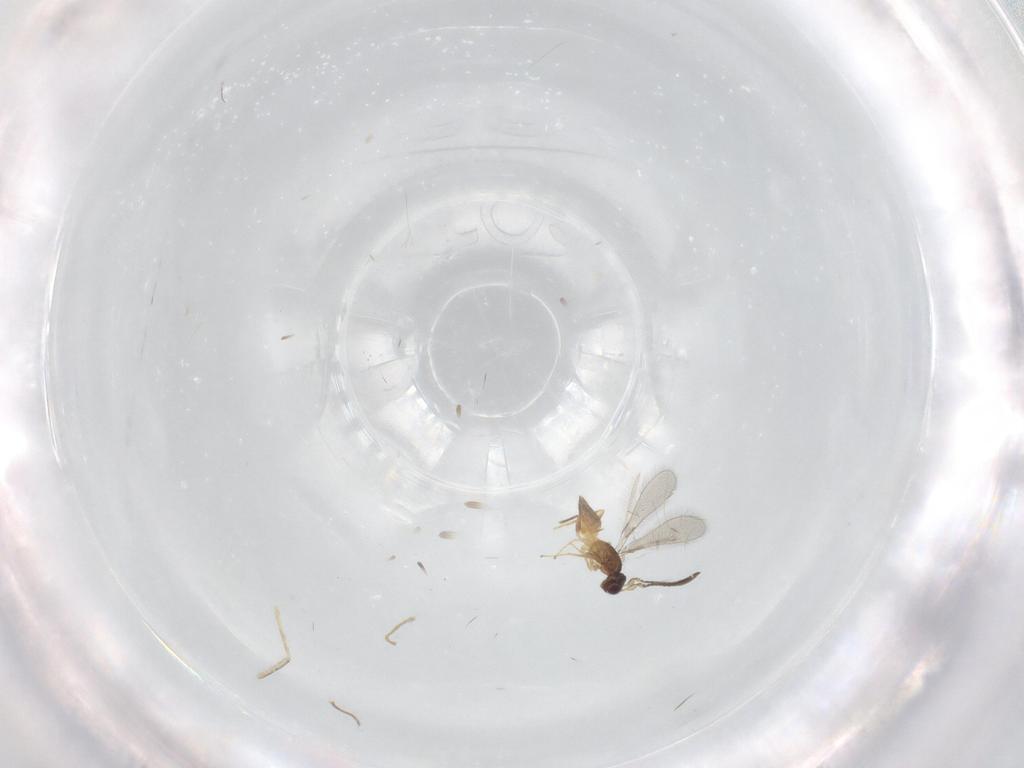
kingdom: Animalia
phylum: Arthropoda
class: Insecta
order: Hymenoptera
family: Mymaridae
